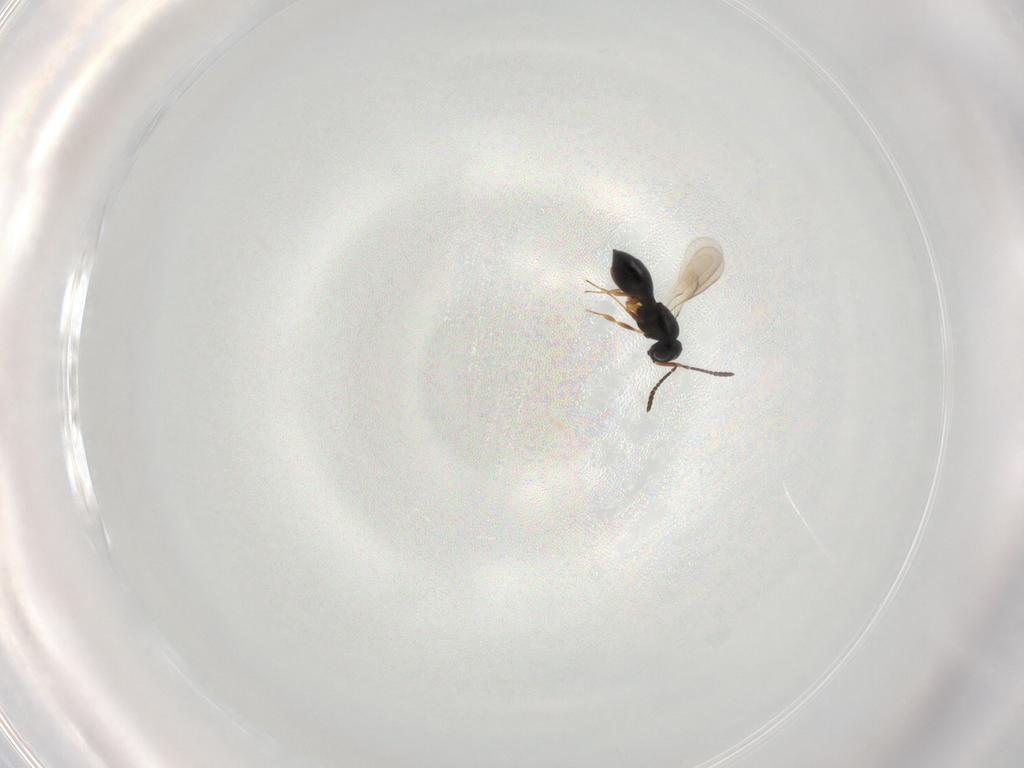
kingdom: Animalia
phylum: Arthropoda
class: Insecta
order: Hymenoptera
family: Scelionidae
